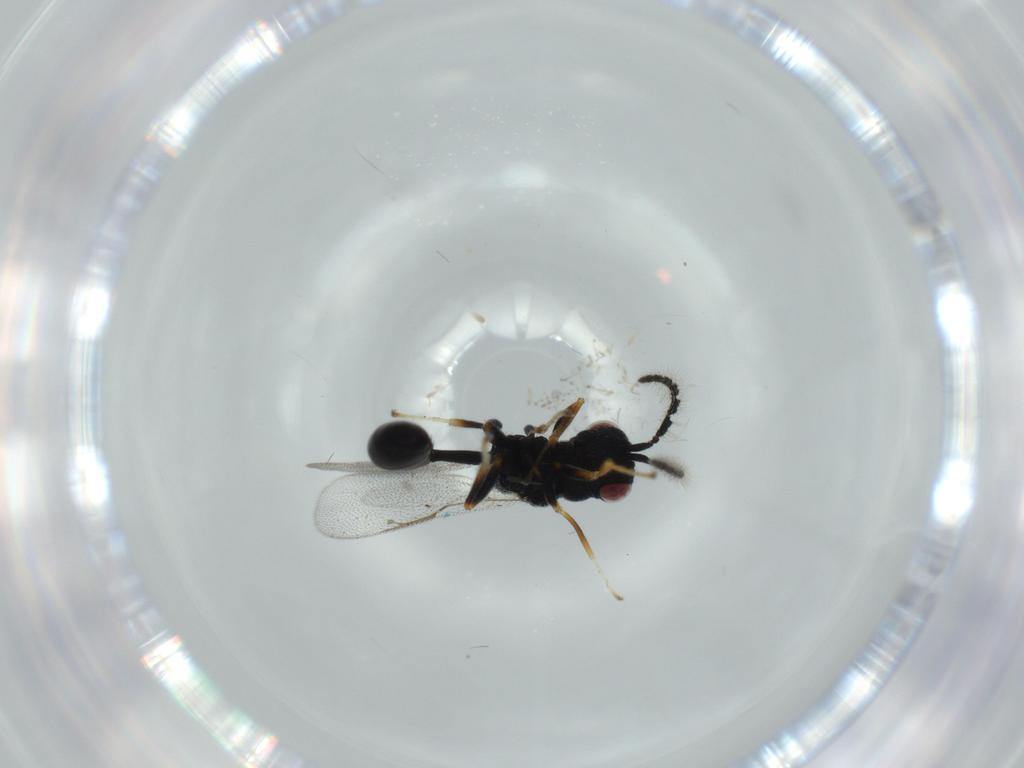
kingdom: Animalia
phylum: Arthropoda
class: Insecta
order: Hymenoptera
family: Eurytomidae
